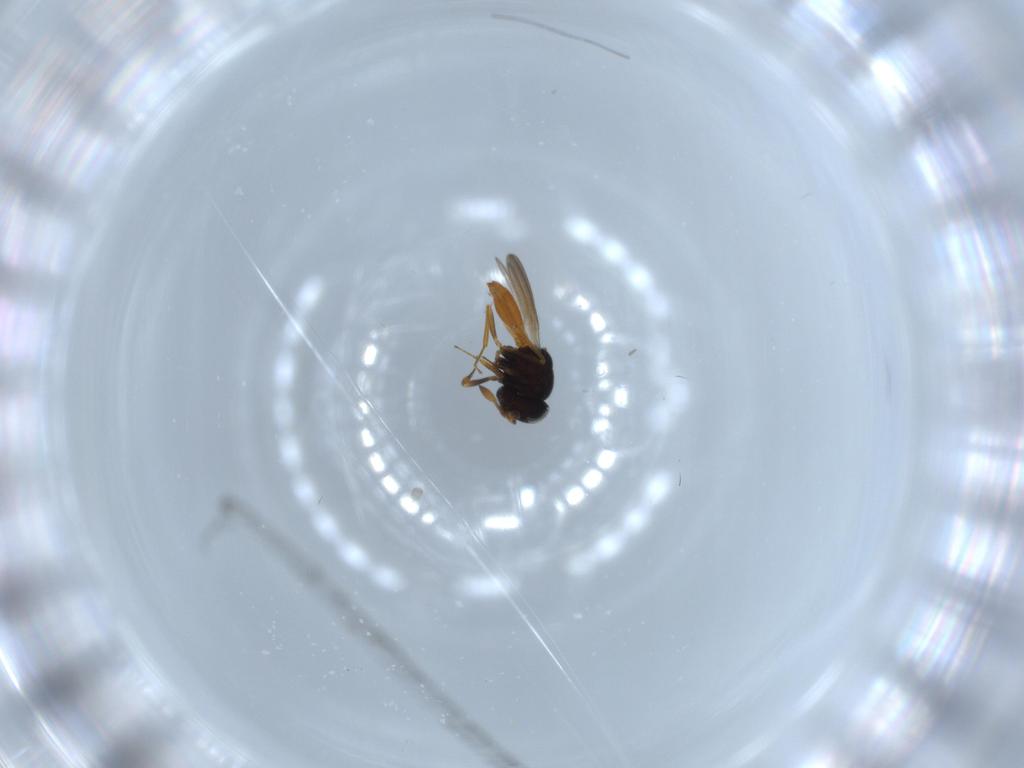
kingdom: Animalia
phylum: Arthropoda
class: Insecta
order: Hymenoptera
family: Scelionidae
